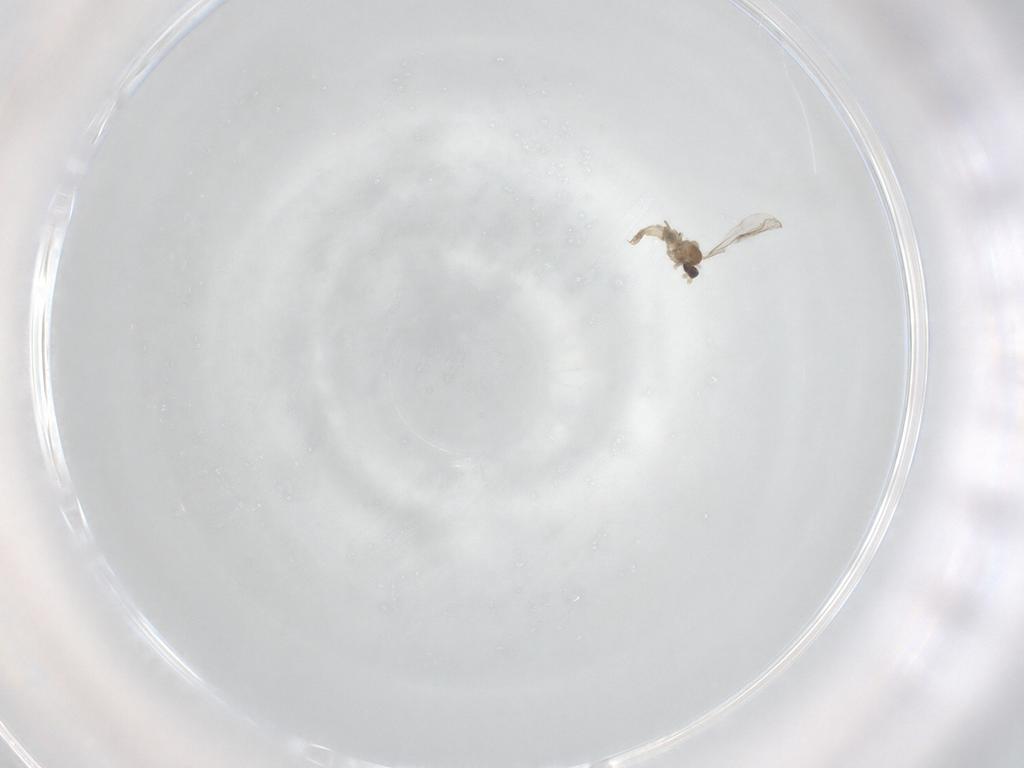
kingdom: Animalia
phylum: Arthropoda
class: Insecta
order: Diptera
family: Cecidomyiidae
